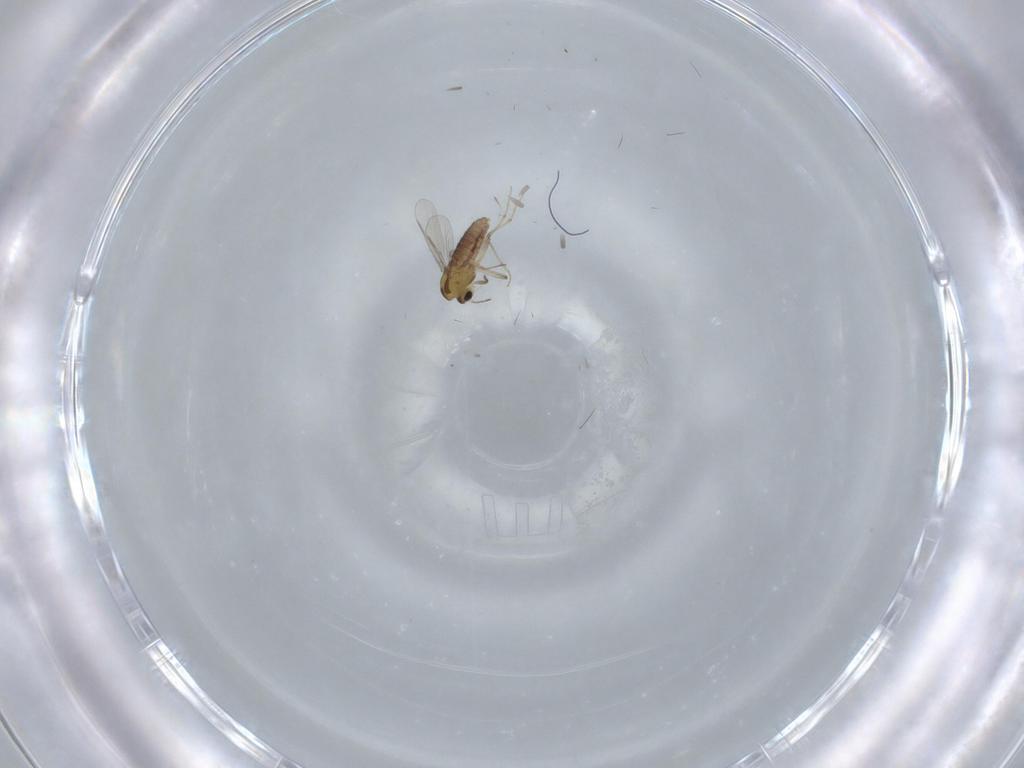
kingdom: Animalia
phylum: Arthropoda
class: Insecta
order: Diptera
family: Chironomidae
